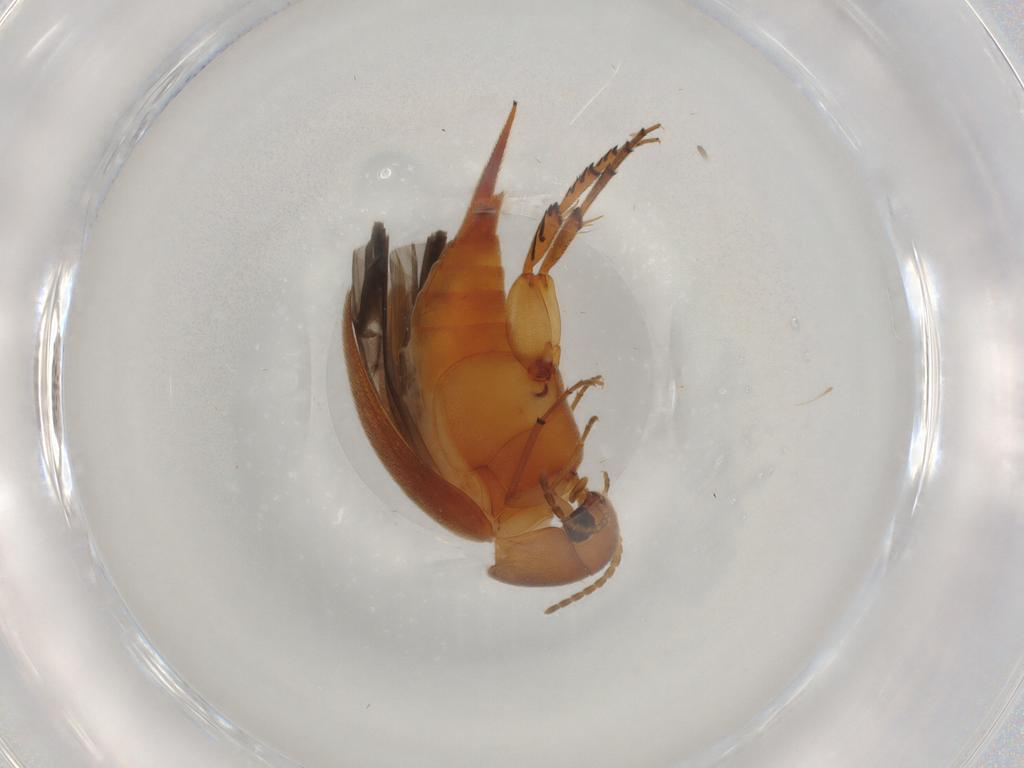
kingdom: Animalia
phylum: Arthropoda
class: Insecta
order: Coleoptera
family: Mordellidae
